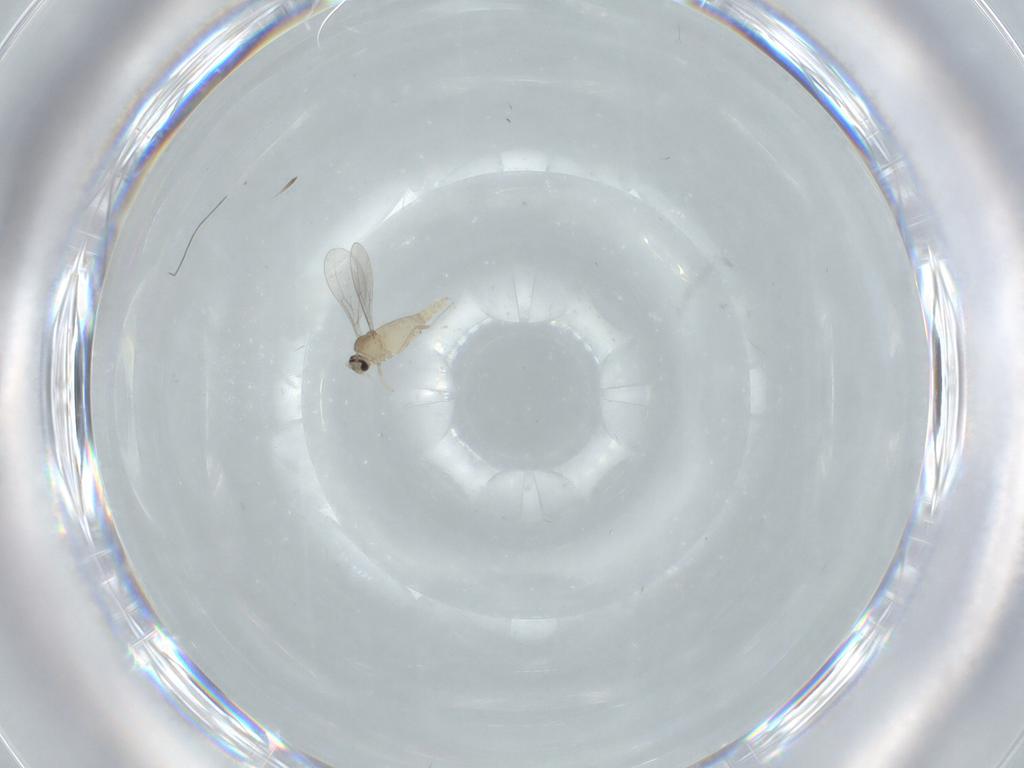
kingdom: Animalia
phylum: Arthropoda
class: Insecta
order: Diptera
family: Cecidomyiidae
